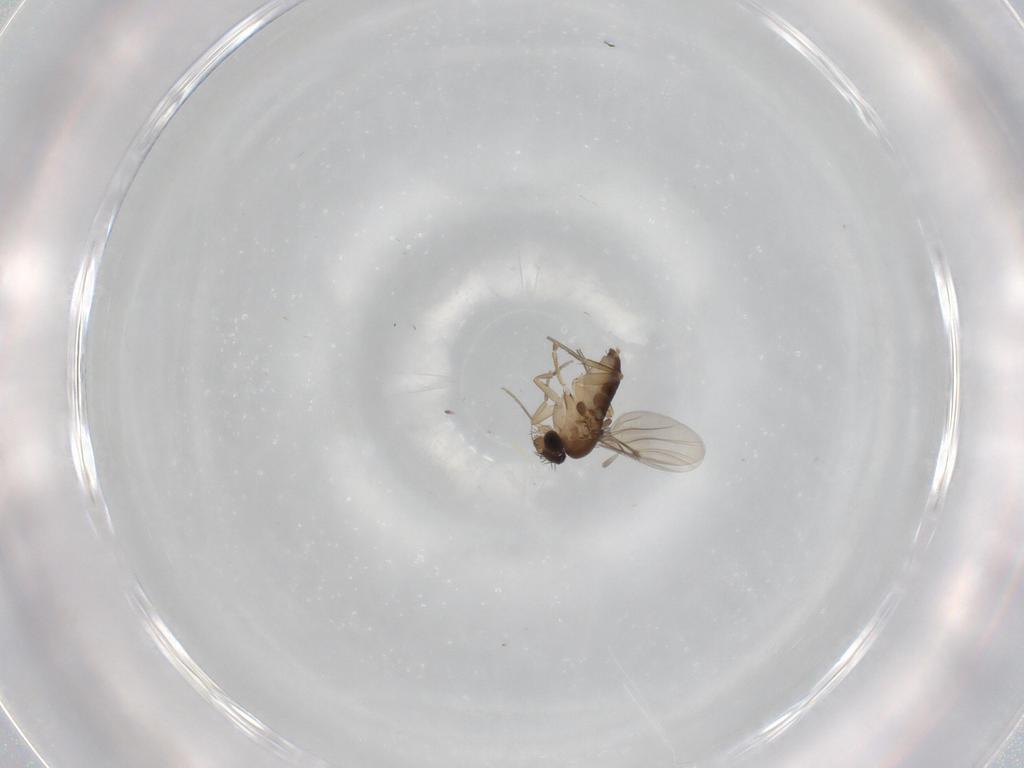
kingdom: Animalia
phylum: Arthropoda
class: Insecta
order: Diptera
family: Phoridae
